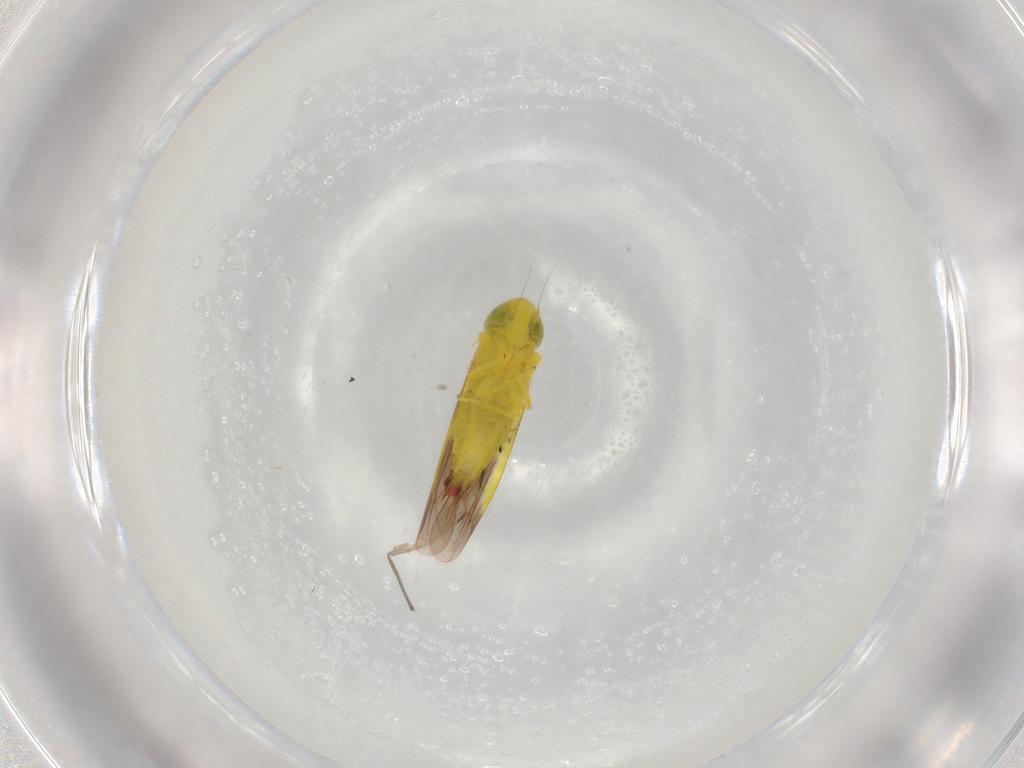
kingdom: Animalia
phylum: Arthropoda
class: Insecta
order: Hemiptera
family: Cicadellidae
